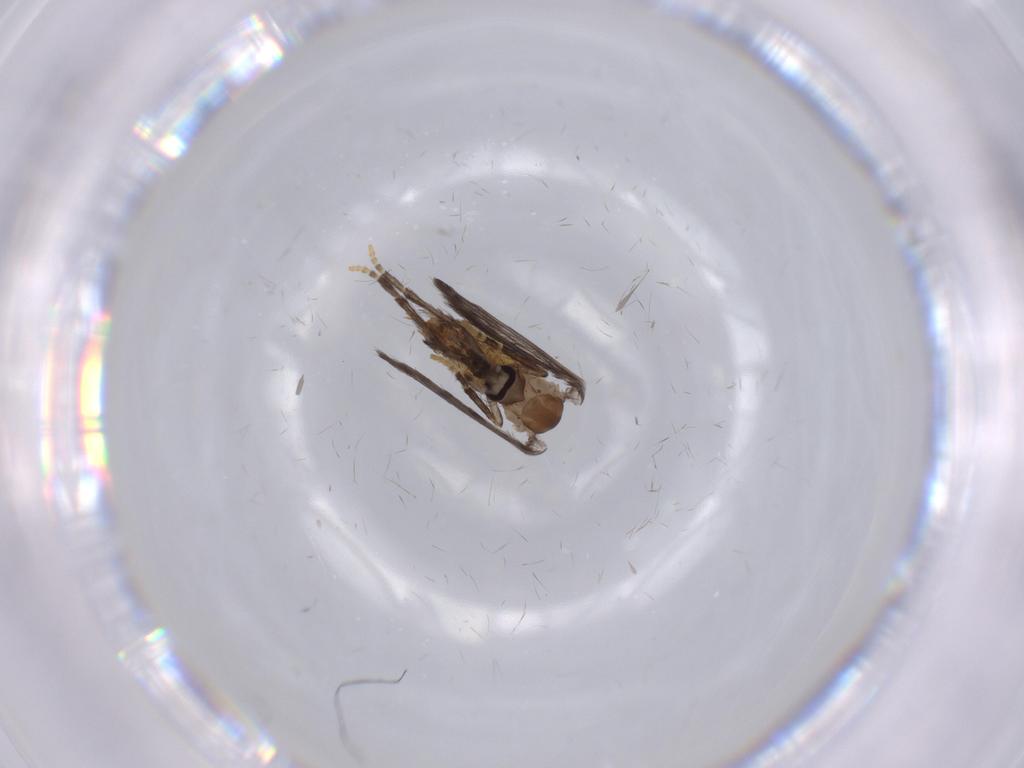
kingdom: Animalia
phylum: Arthropoda
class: Insecta
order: Diptera
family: Psychodidae
